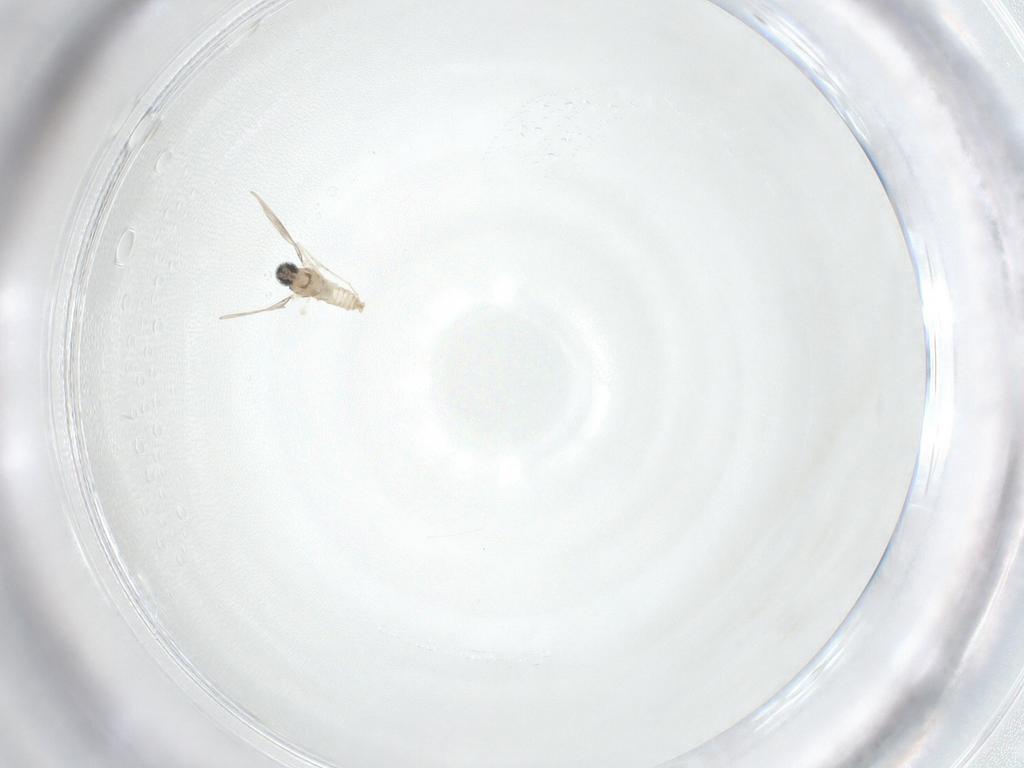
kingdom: Animalia
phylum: Arthropoda
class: Insecta
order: Diptera
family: Cecidomyiidae
